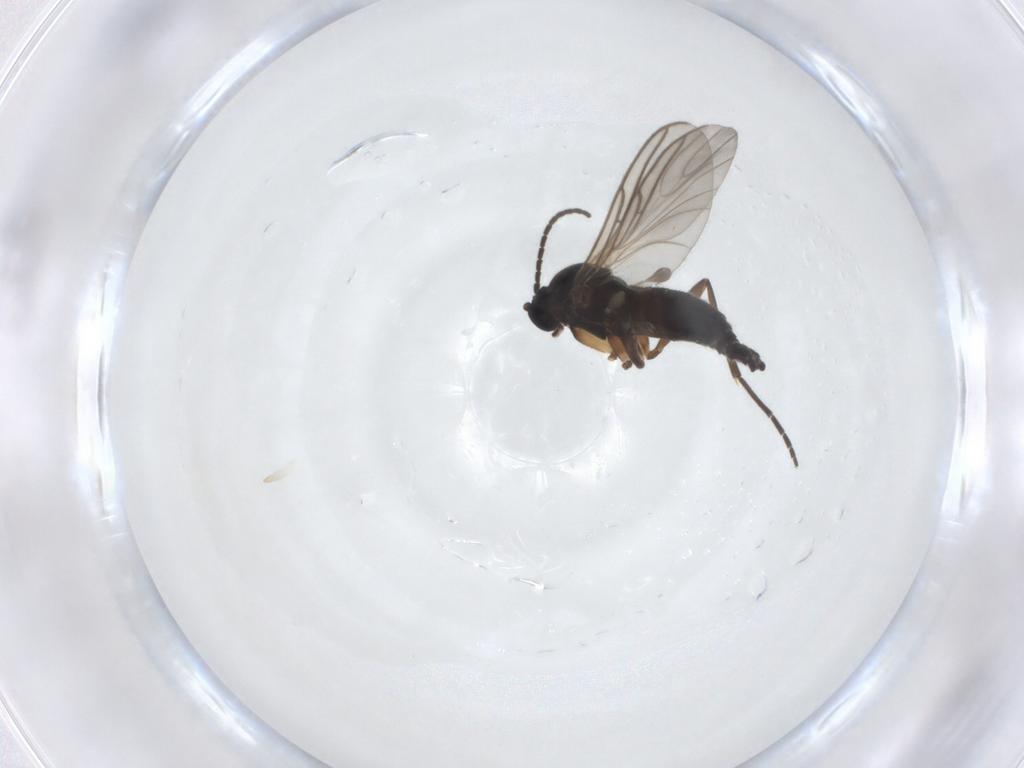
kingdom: Animalia
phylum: Arthropoda
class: Insecta
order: Diptera
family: Sciaridae
